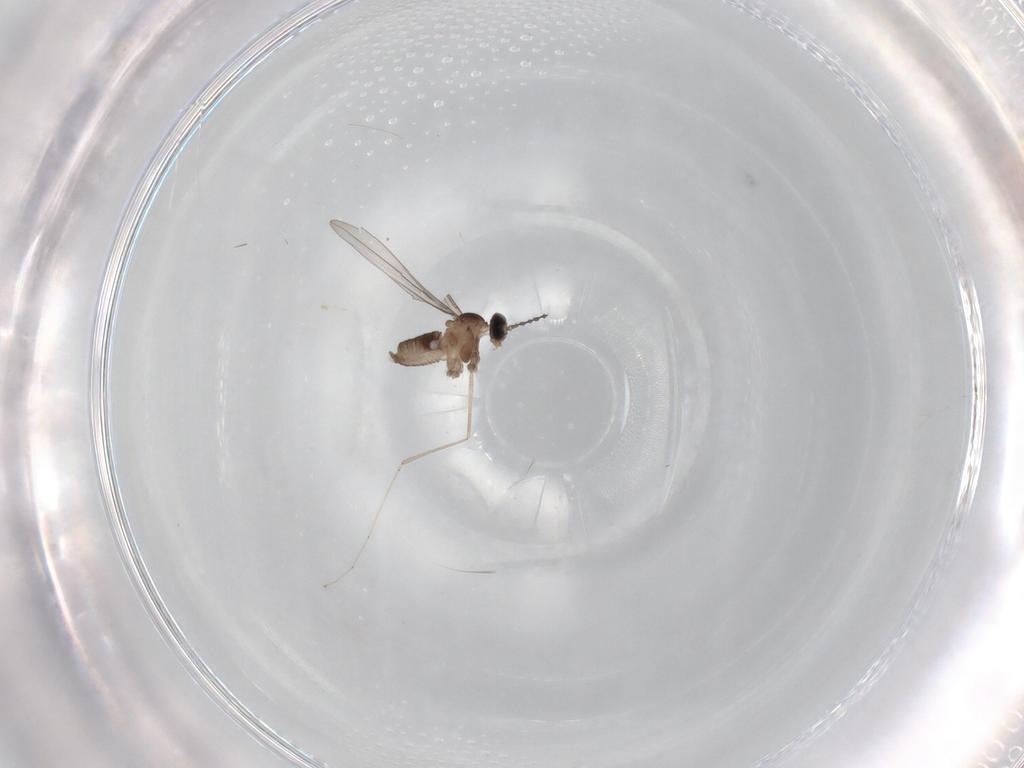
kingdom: Animalia
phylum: Arthropoda
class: Insecta
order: Diptera
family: Cecidomyiidae
